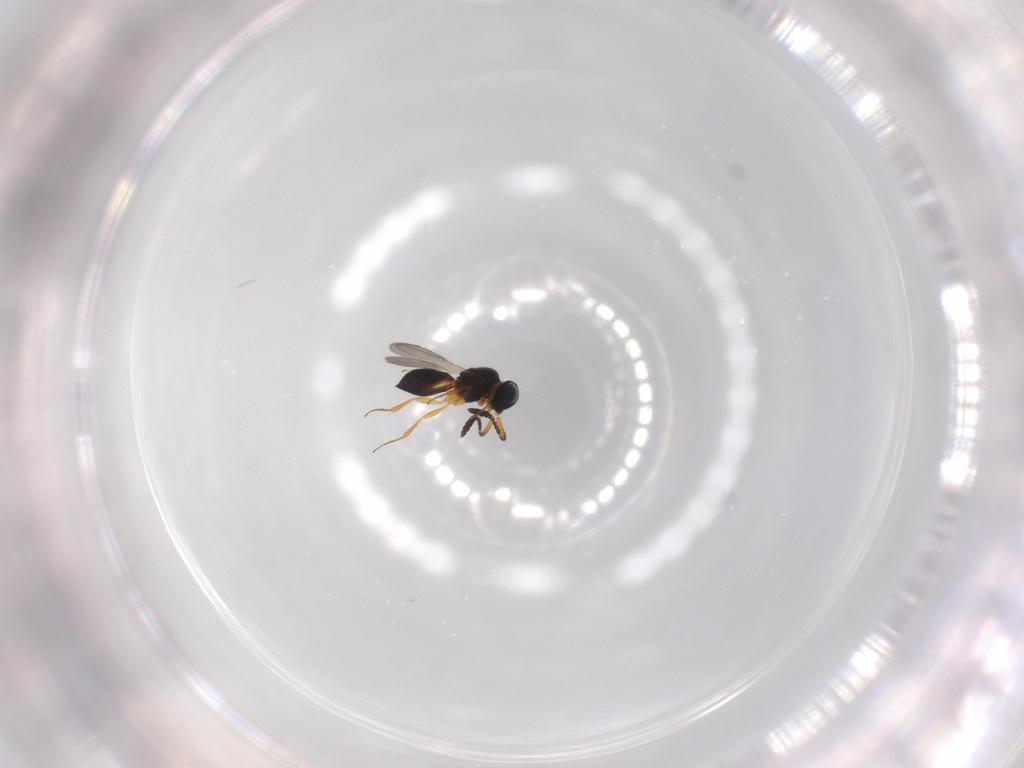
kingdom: Animalia
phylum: Arthropoda
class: Insecta
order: Hymenoptera
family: Scelionidae
